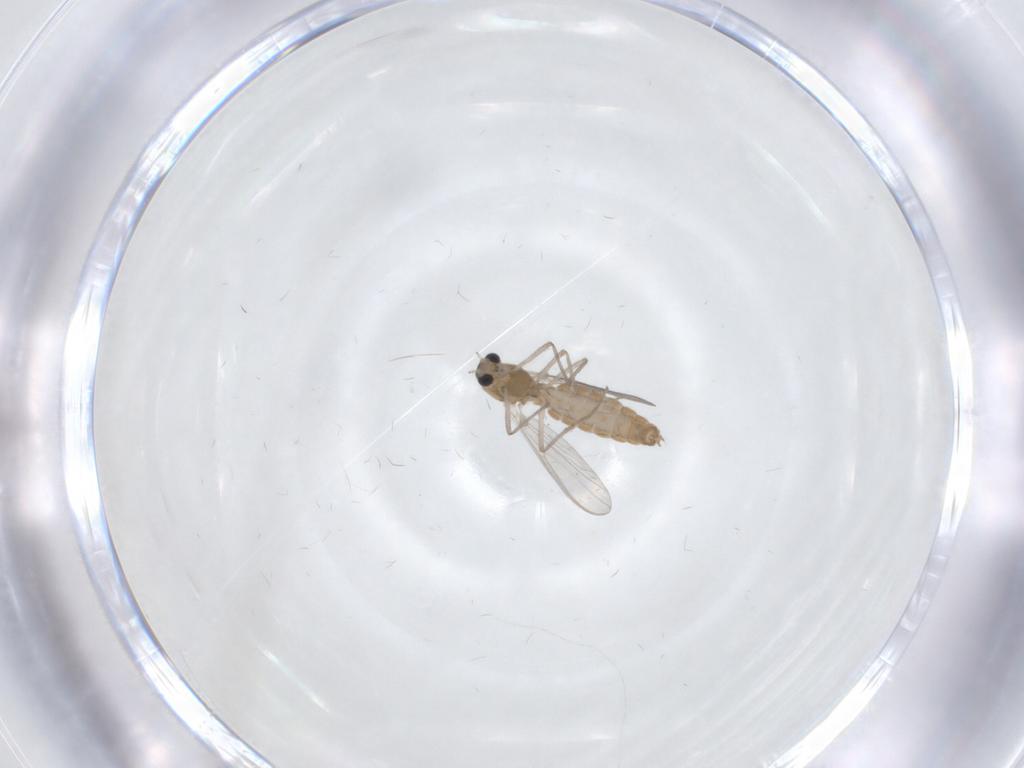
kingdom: Animalia
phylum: Arthropoda
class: Insecta
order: Diptera
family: Chironomidae
